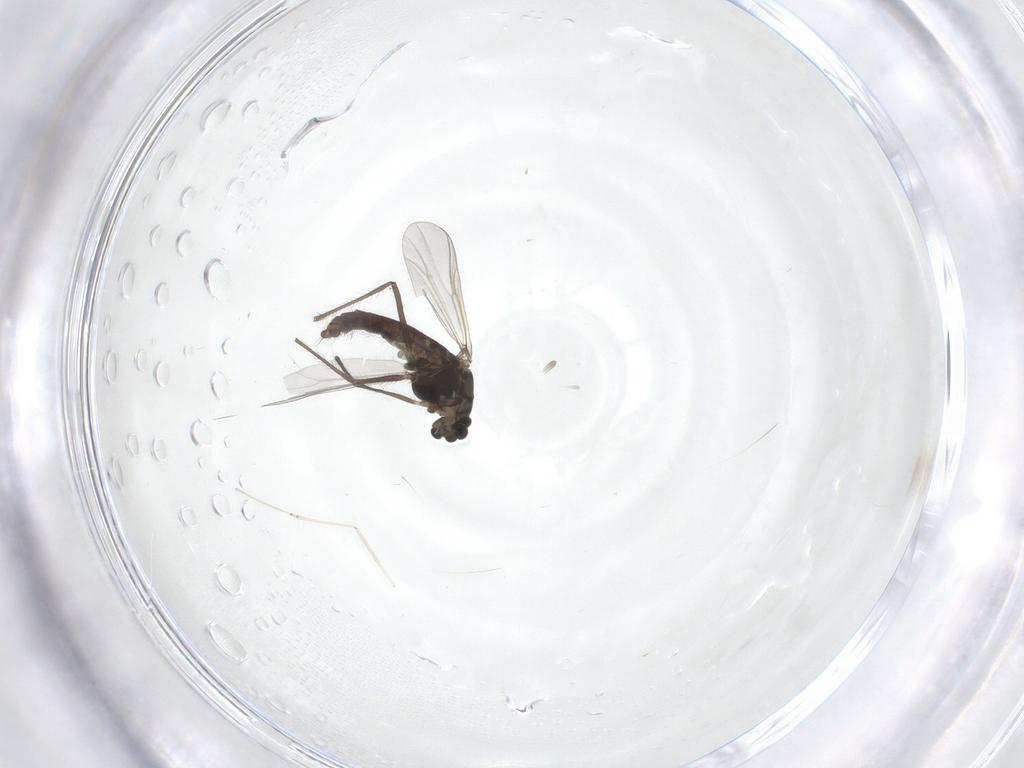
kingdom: Animalia
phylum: Arthropoda
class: Insecta
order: Diptera
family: Chironomidae
